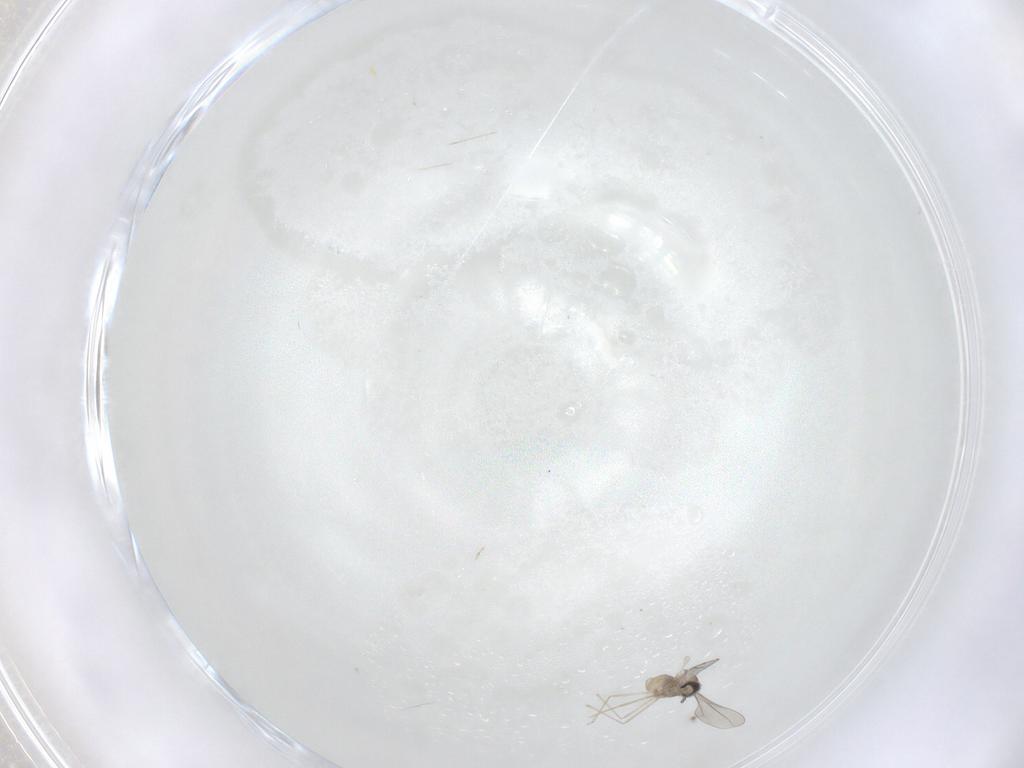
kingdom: Animalia
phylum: Arthropoda
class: Insecta
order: Diptera
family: Cecidomyiidae
